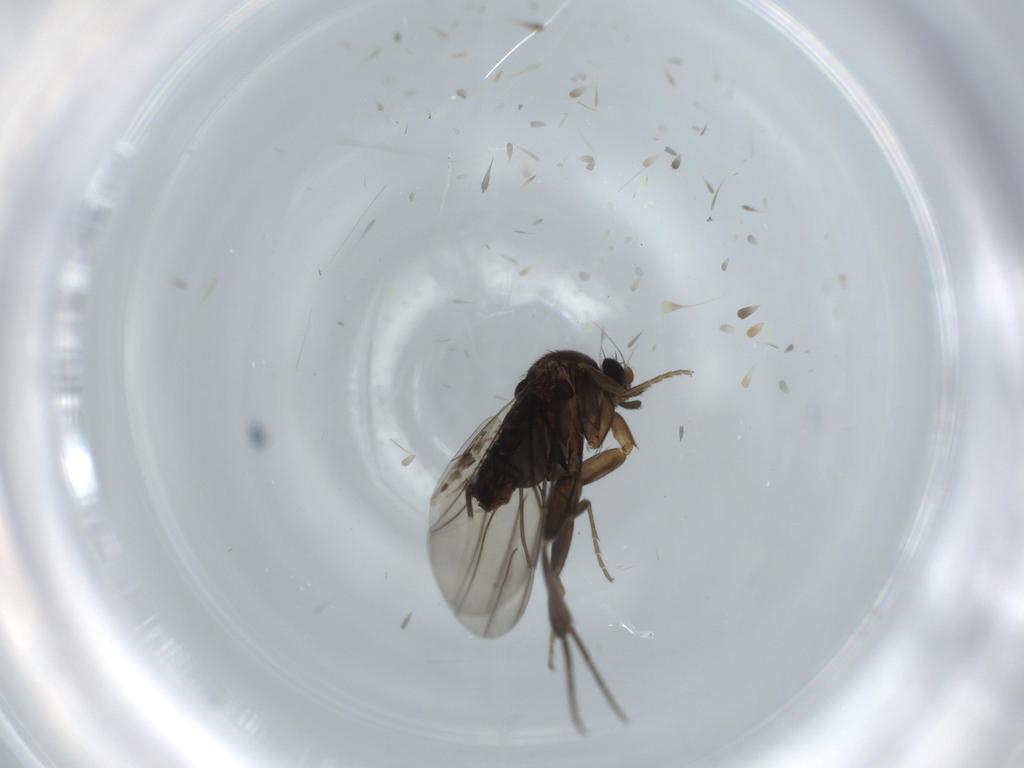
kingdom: Animalia
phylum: Arthropoda
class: Insecta
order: Diptera
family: Cecidomyiidae
